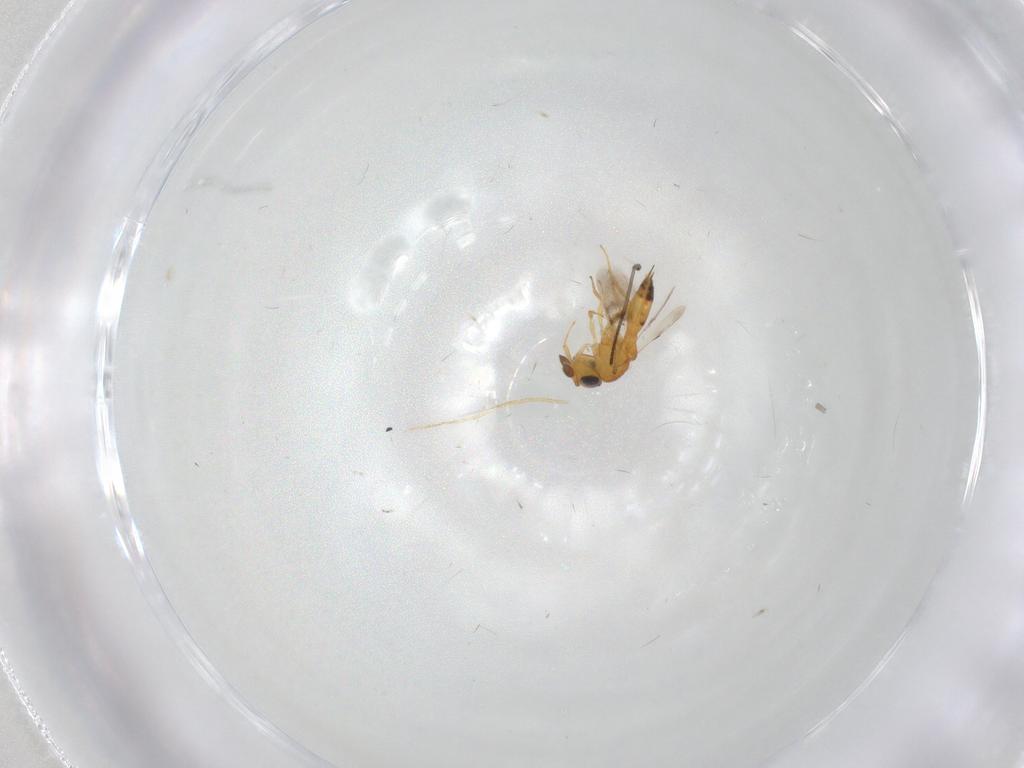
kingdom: Animalia
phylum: Arthropoda
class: Insecta
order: Hymenoptera
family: Scelionidae
